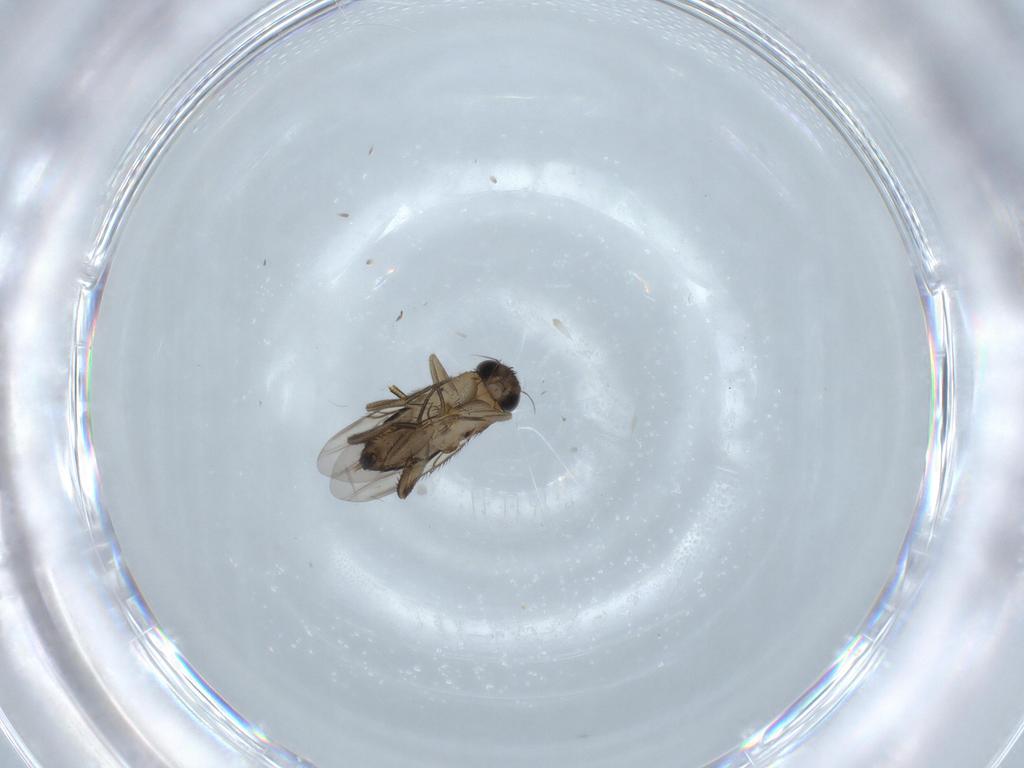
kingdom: Animalia
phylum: Arthropoda
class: Insecta
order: Diptera
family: Phoridae
